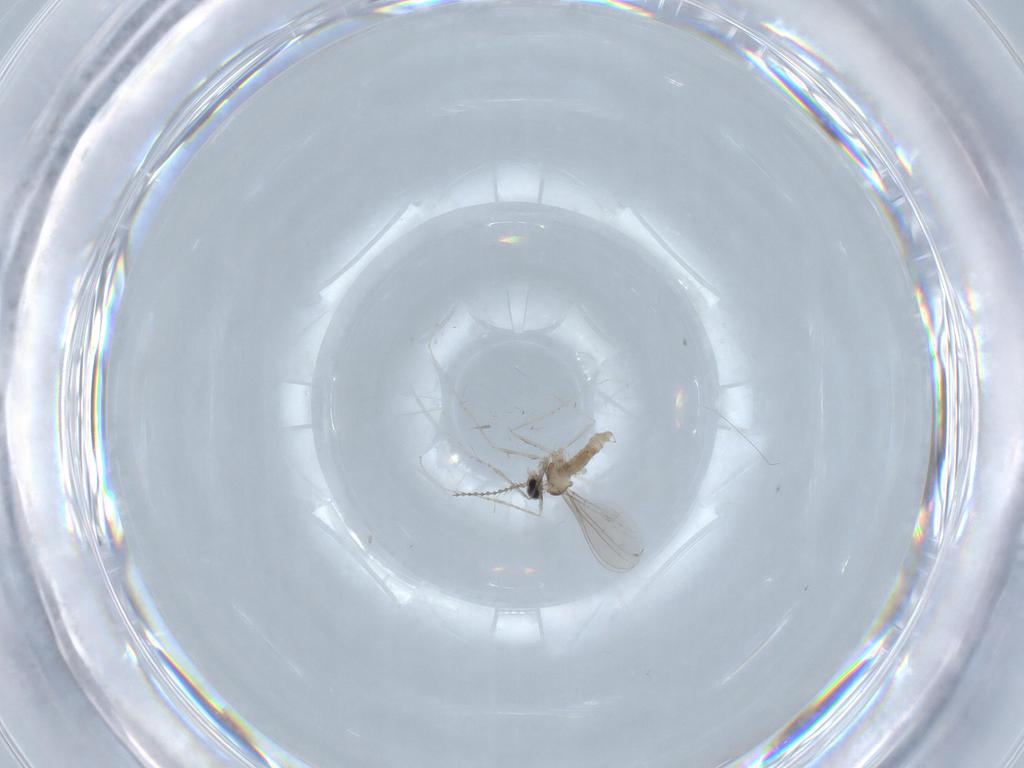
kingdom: Animalia
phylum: Arthropoda
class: Insecta
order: Diptera
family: Cecidomyiidae
